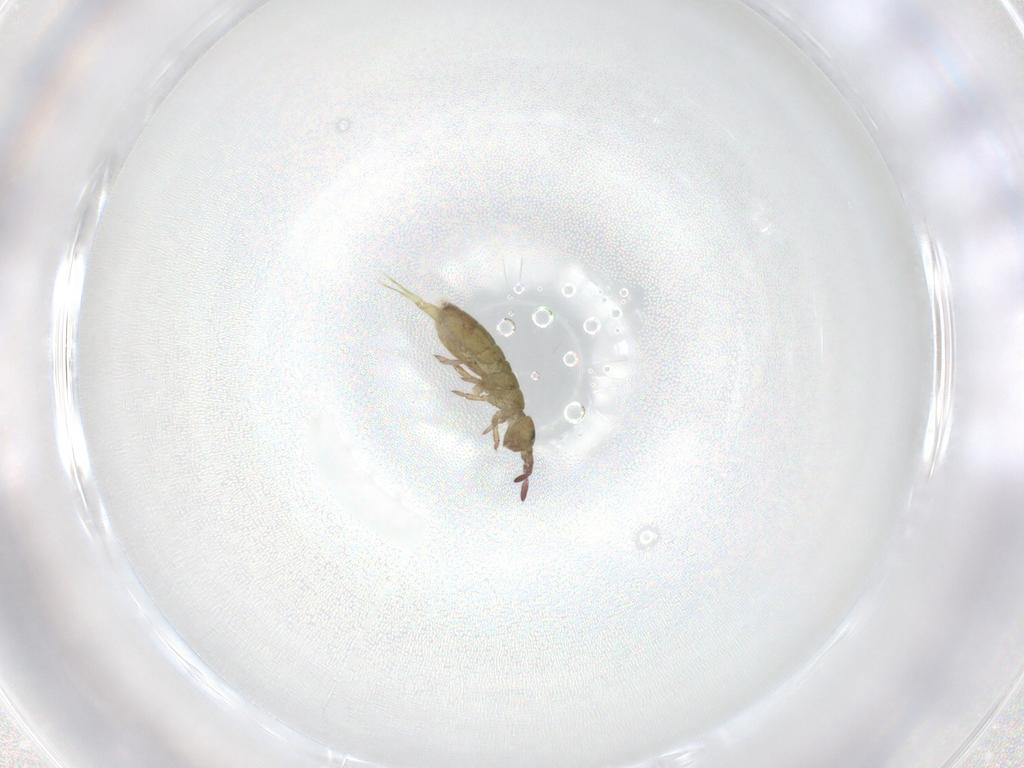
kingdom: Animalia
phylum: Arthropoda
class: Collembola
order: Entomobryomorpha
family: Isotomidae
